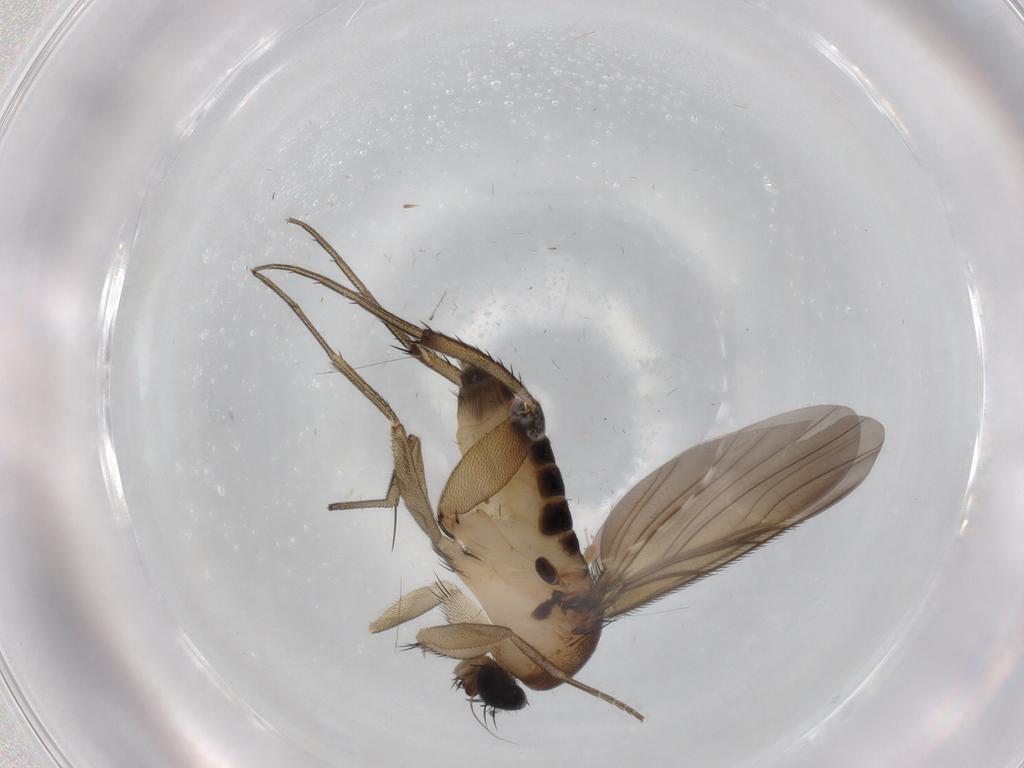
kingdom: Animalia
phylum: Arthropoda
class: Insecta
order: Diptera
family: Phoridae
